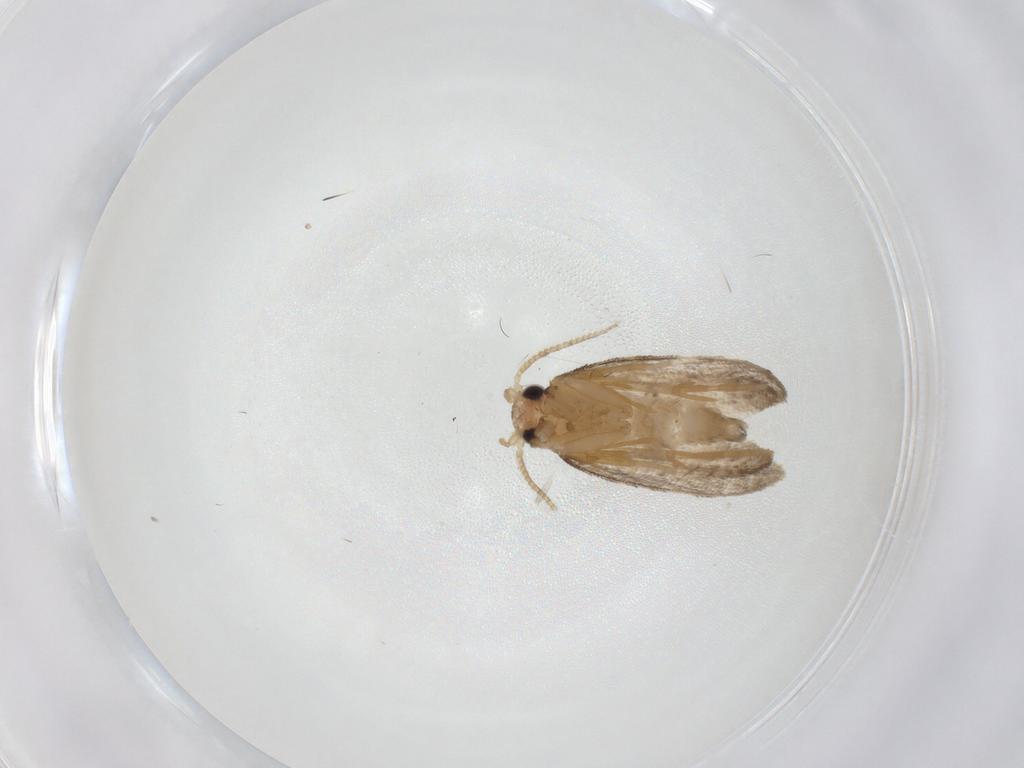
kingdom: Animalia
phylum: Arthropoda
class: Insecta
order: Lepidoptera
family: Psychidae
